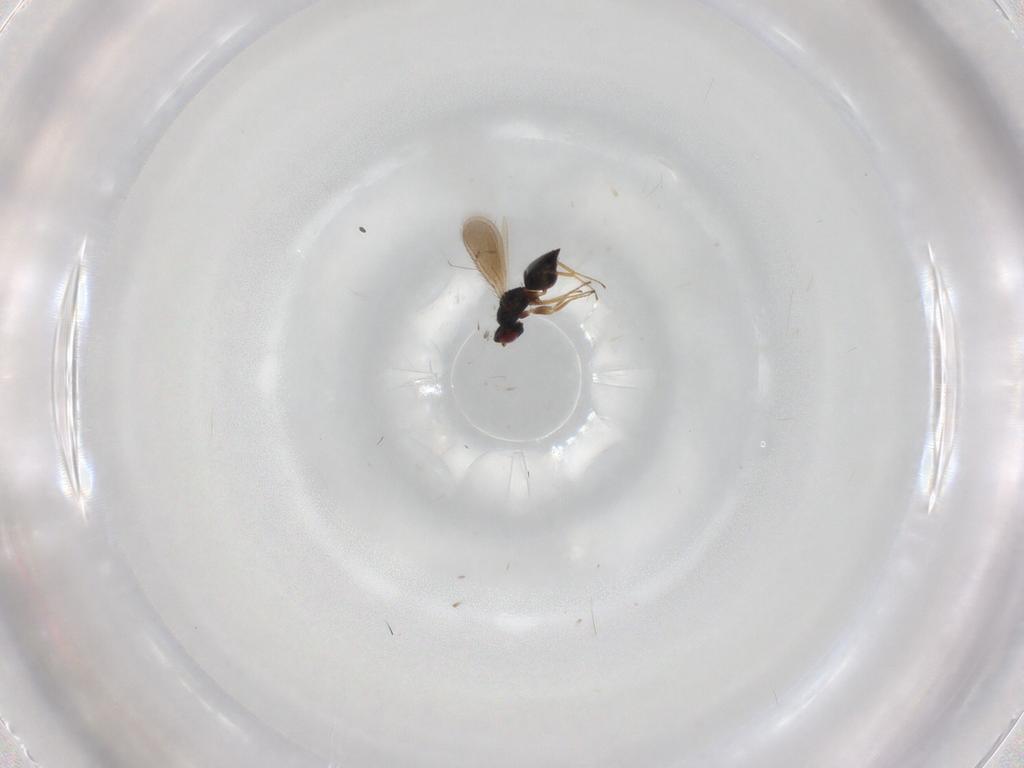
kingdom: Animalia
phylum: Arthropoda
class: Insecta
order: Hymenoptera
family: Tetracampidae
